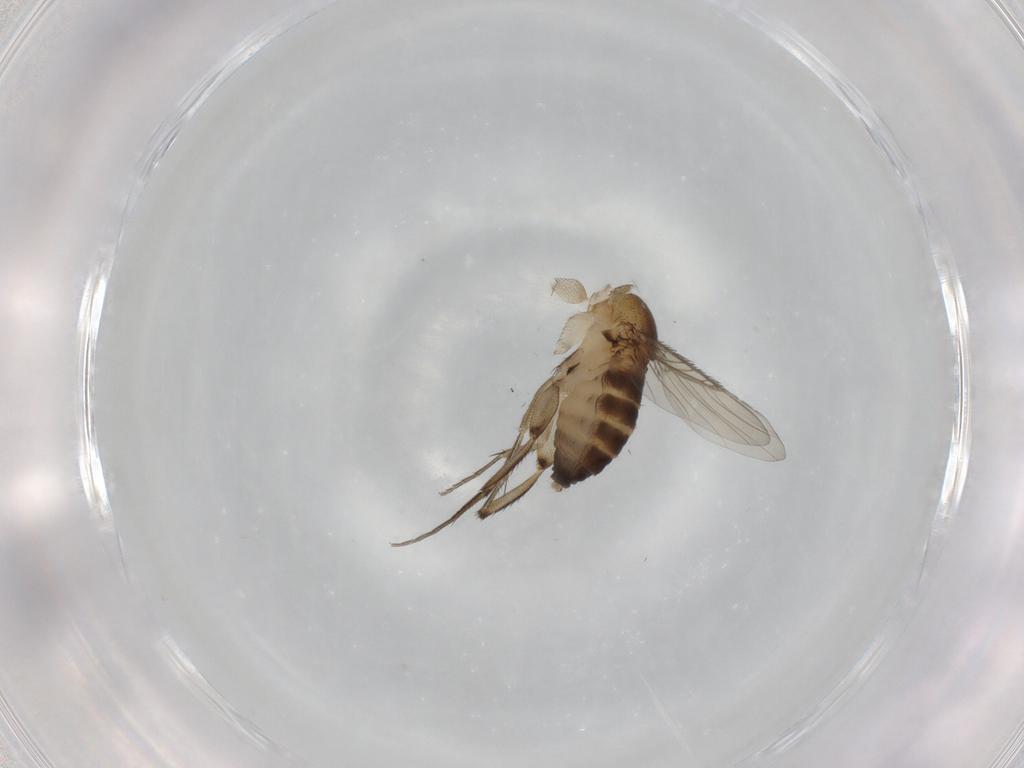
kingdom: Animalia
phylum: Arthropoda
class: Insecta
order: Diptera
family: Phoridae
